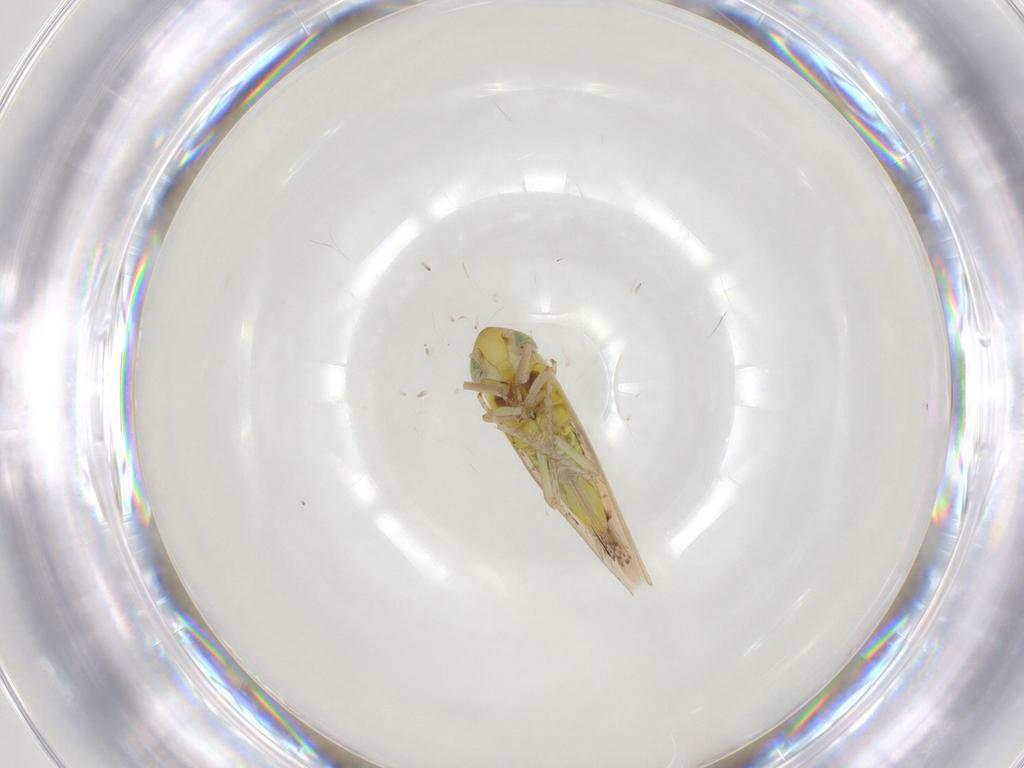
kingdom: Animalia
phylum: Arthropoda
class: Insecta
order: Hemiptera
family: Cicadellidae
